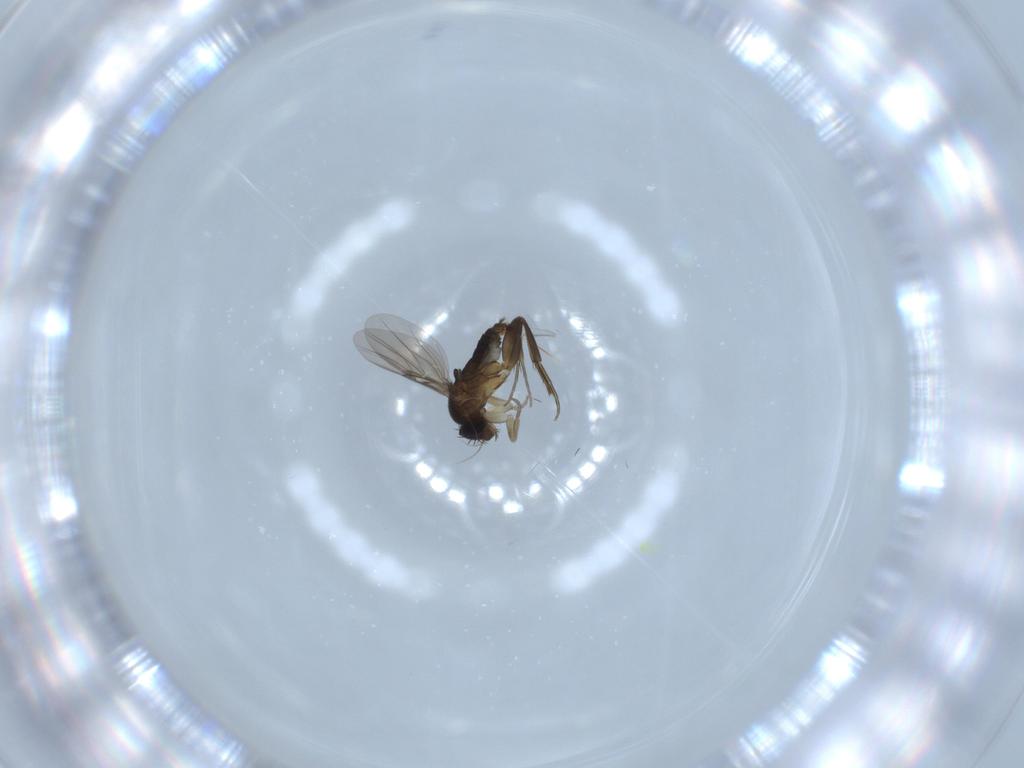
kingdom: Animalia
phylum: Arthropoda
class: Insecta
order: Diptera
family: Phoridae
